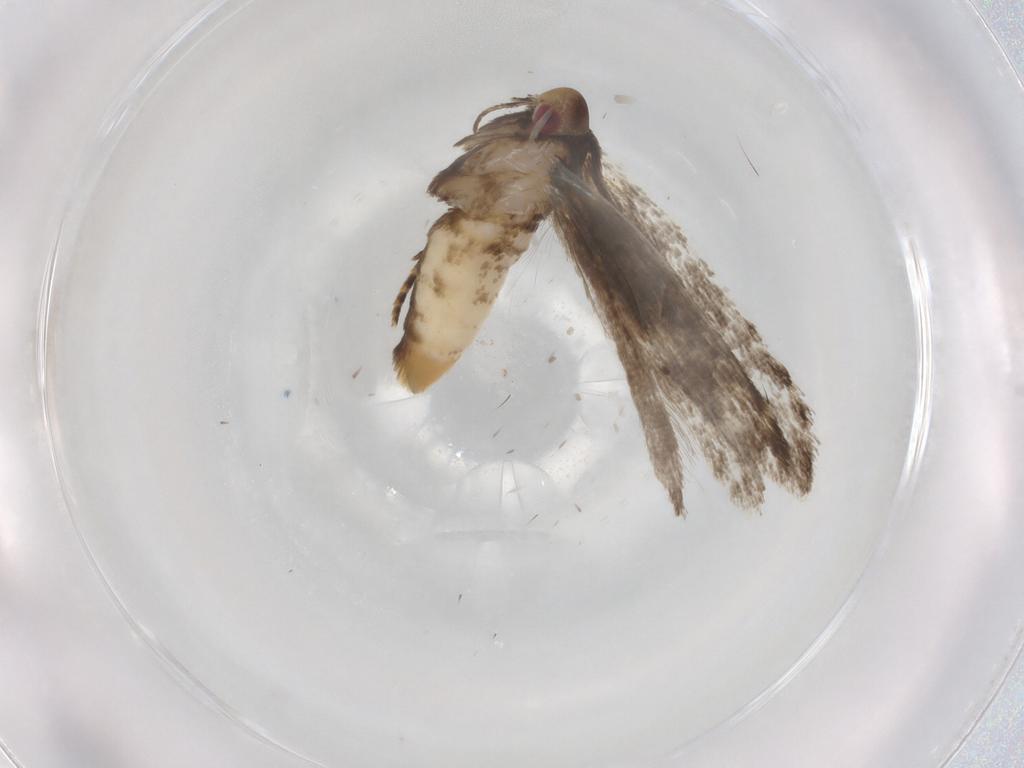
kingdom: Animalia
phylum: Arthropoda
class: Insecta
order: Lepidoptera
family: Gelechiidae
